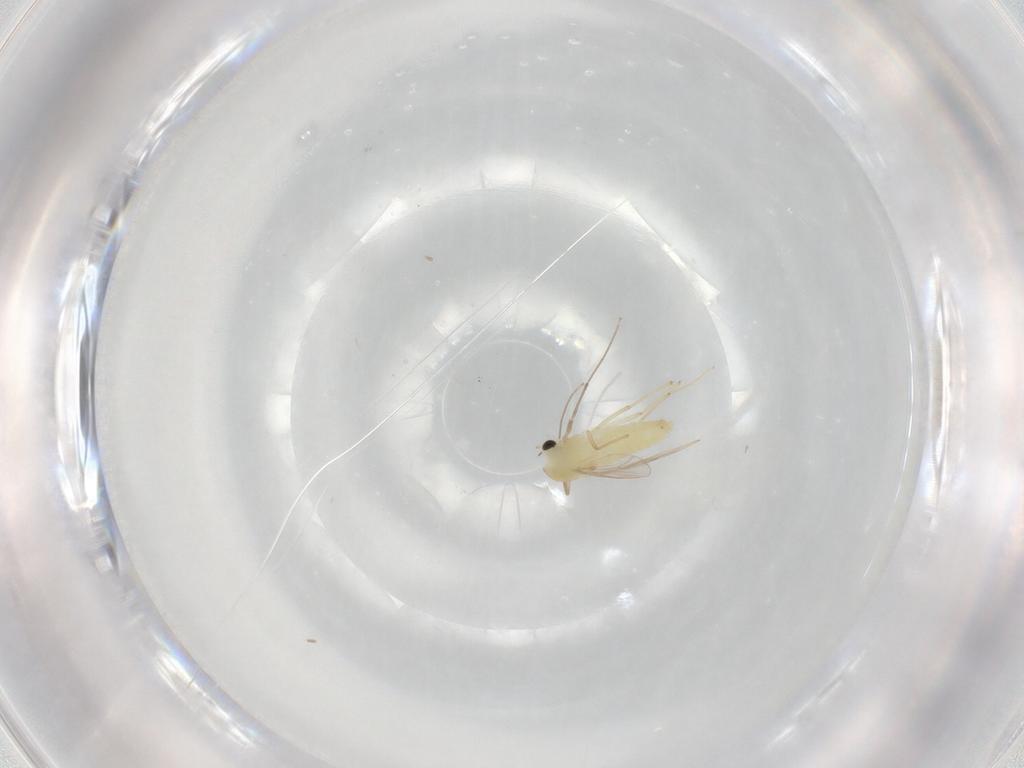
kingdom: Animalia
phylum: Arthropoda
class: Insecta
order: Diptera
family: Chironomidae
